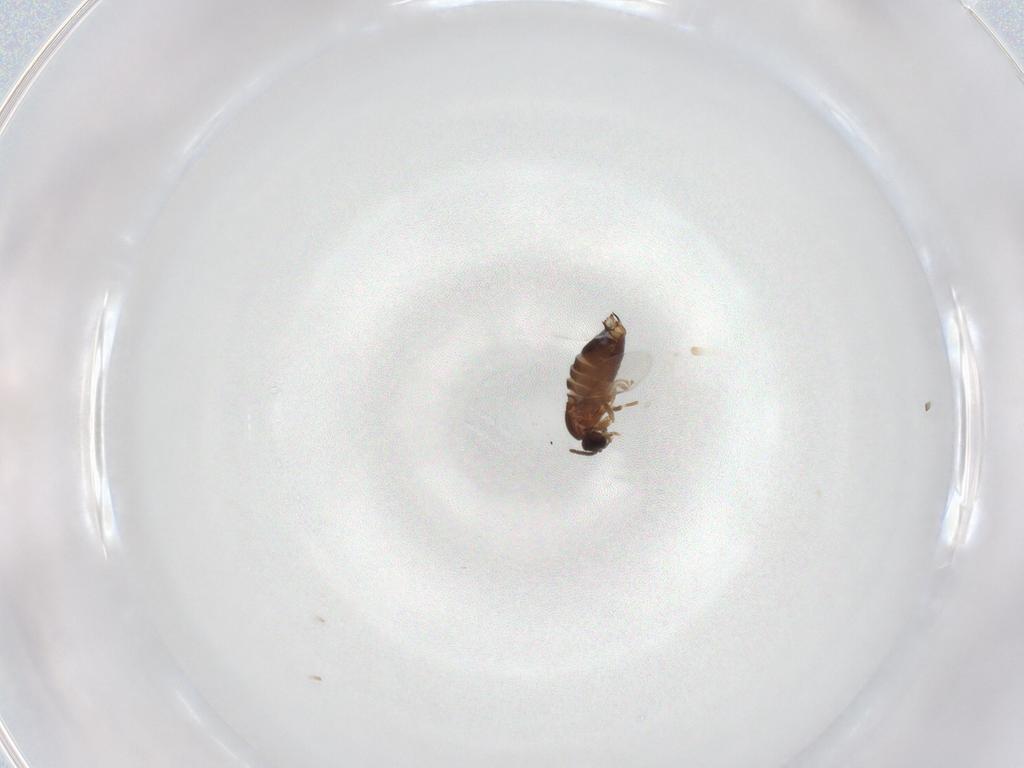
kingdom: Animalia
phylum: Arthropoda
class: Insecta
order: Diptera
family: Scatopsidae
